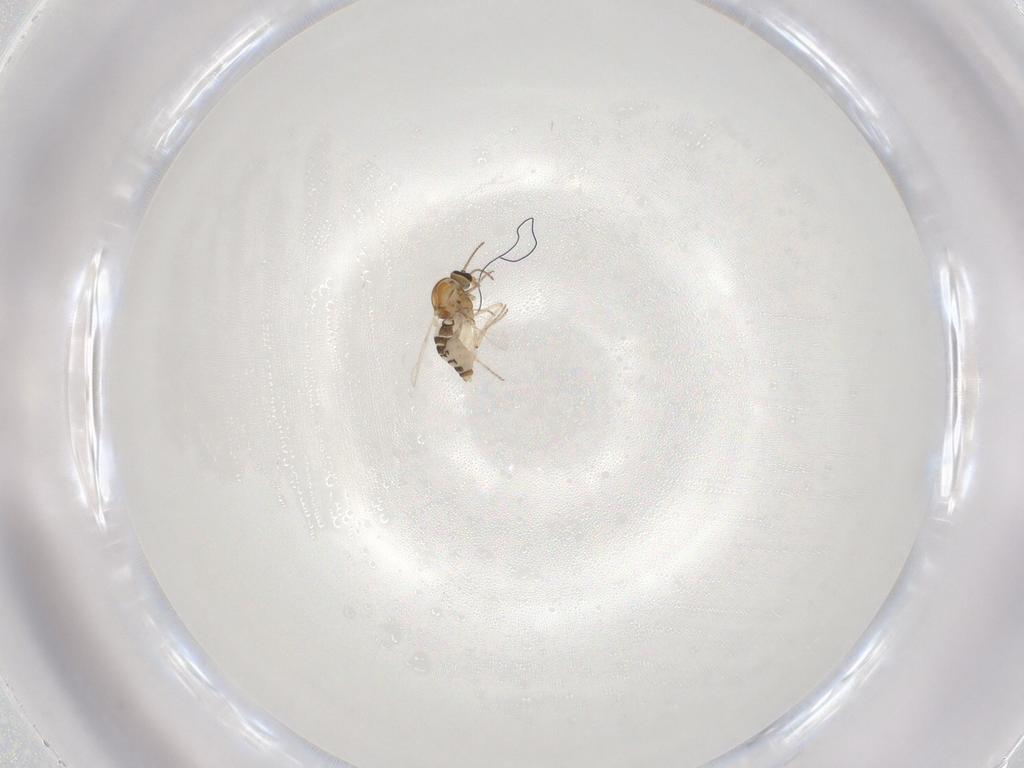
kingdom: Animalia
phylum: Arthropoda
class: Insecta
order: Diptera
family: Ceratopogonidae
